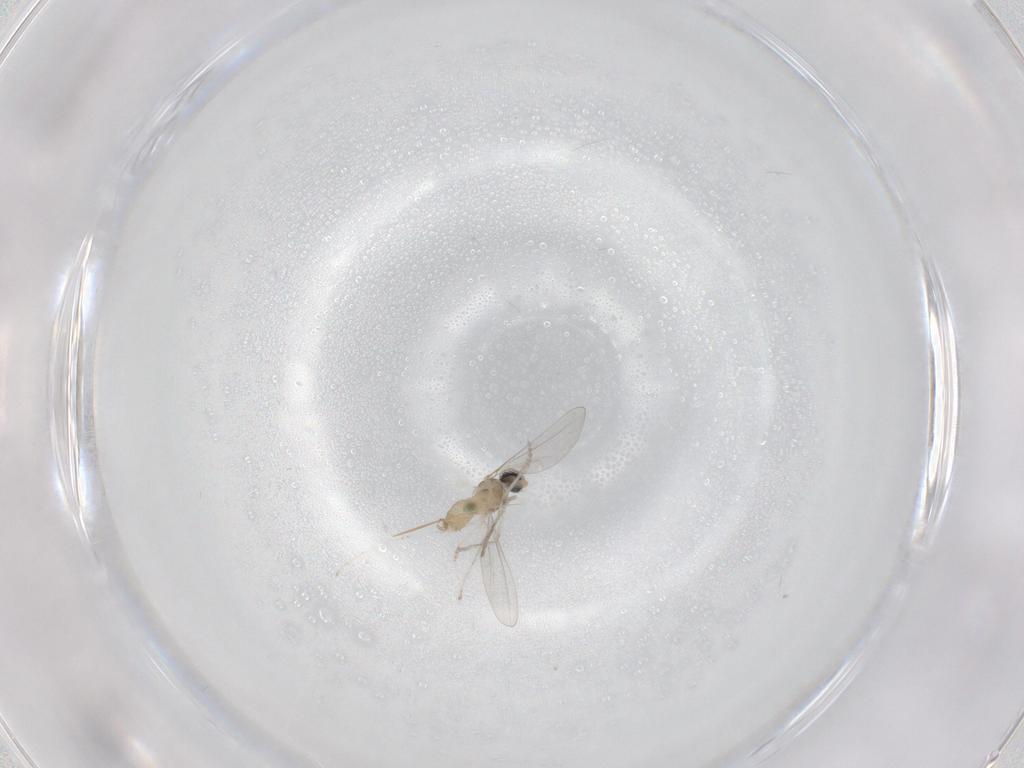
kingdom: Animalia
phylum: Arthropoda
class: Insecta
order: Diptera
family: Cecidomyiidae
